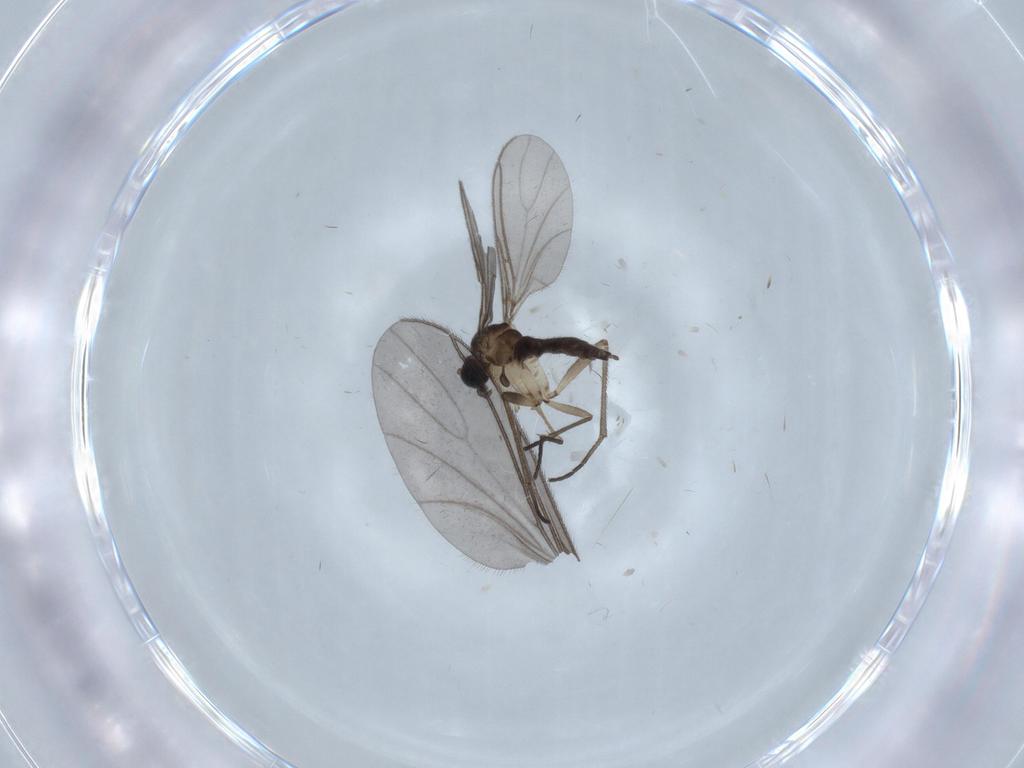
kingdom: Animalia
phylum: Arthropoda
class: Insecta
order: Diptera
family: Sciaridae
